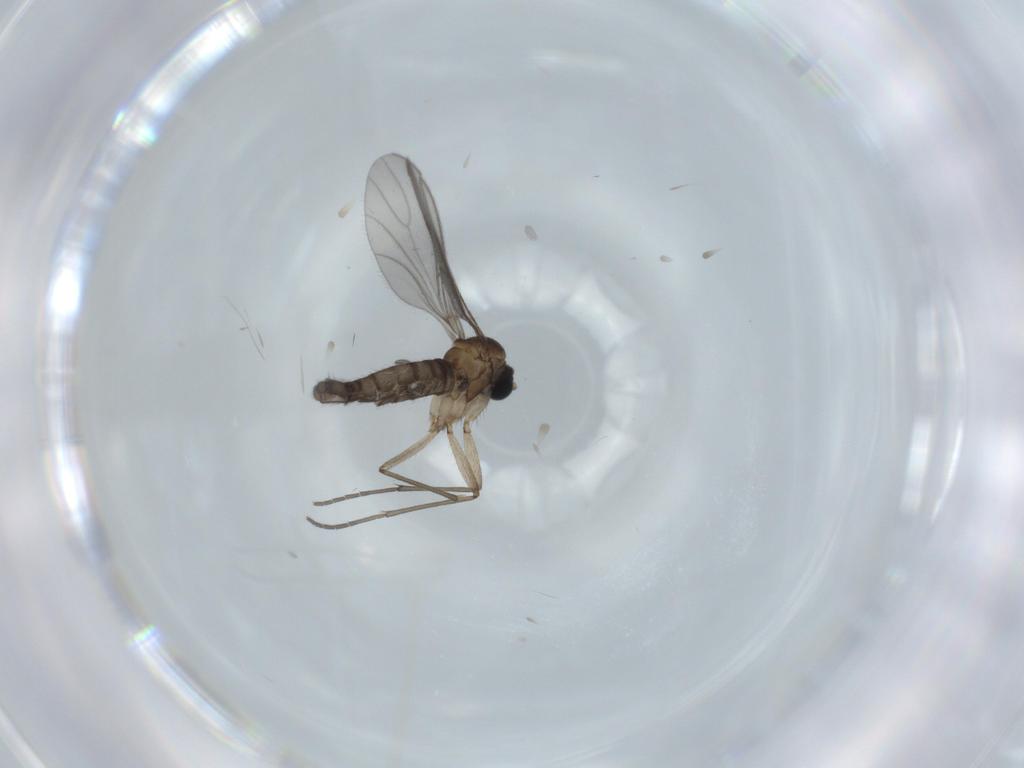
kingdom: Animalia
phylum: Arthropoda
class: Insecta
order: Diptera
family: Sciaridae
